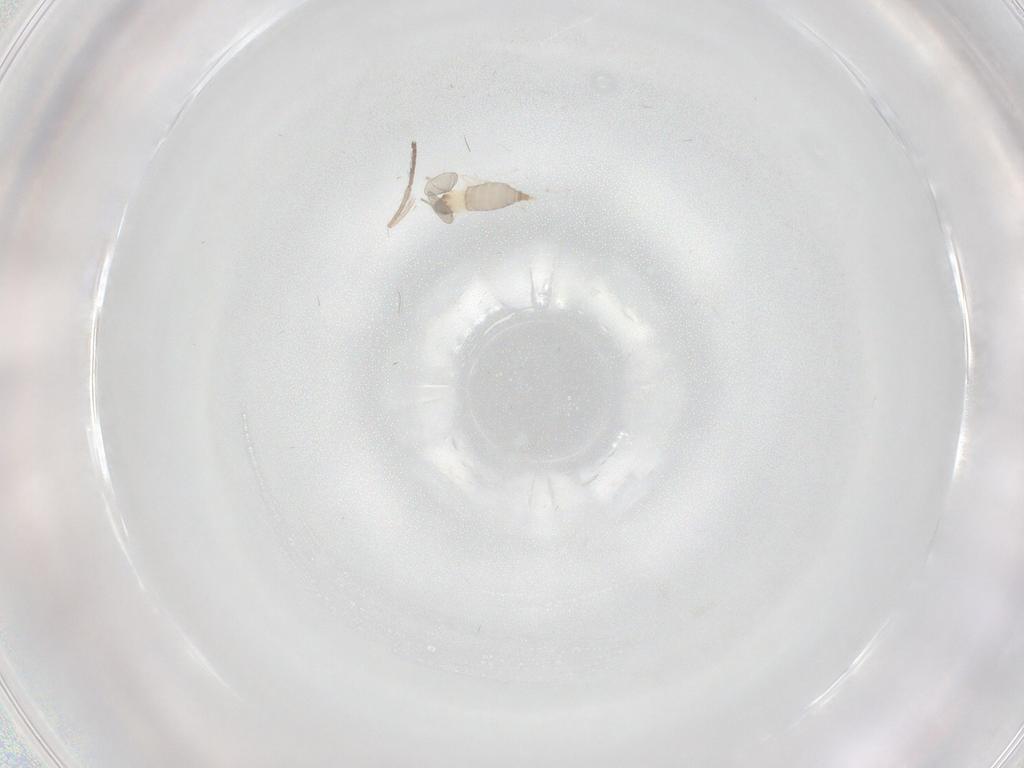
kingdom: Animalia
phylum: Arthropoda
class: Insecta
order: Diptera
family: Psychodidae
